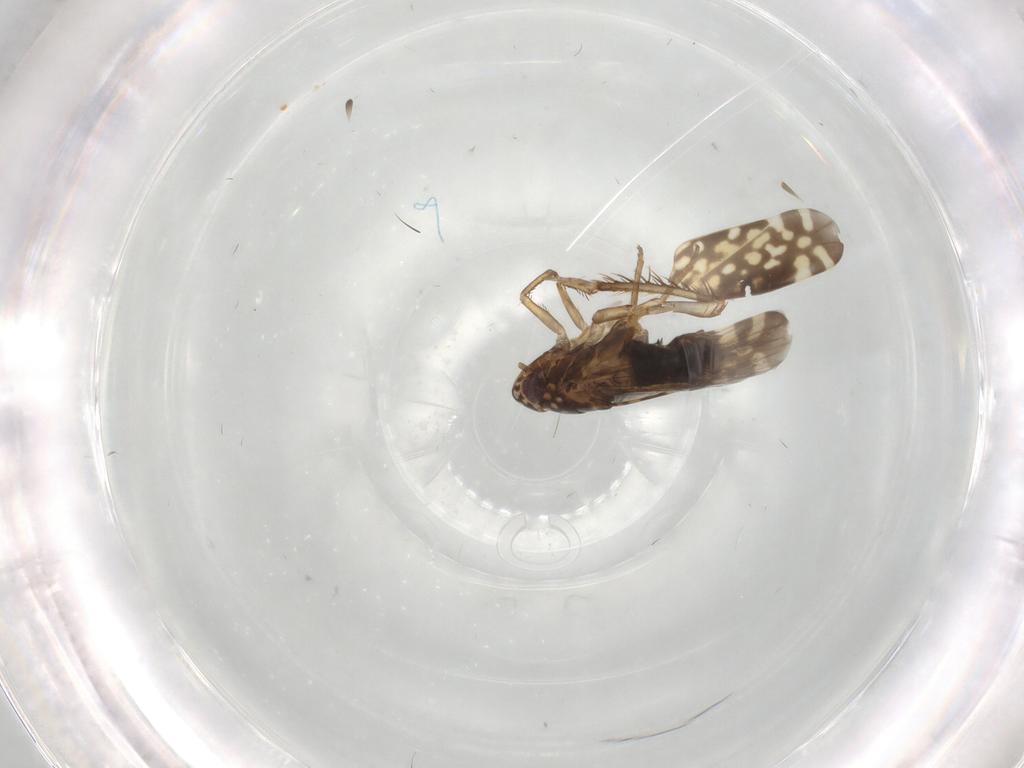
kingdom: Animalia
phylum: Arthropoda
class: Insecta
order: Hemiptera
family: Cicadellidae
